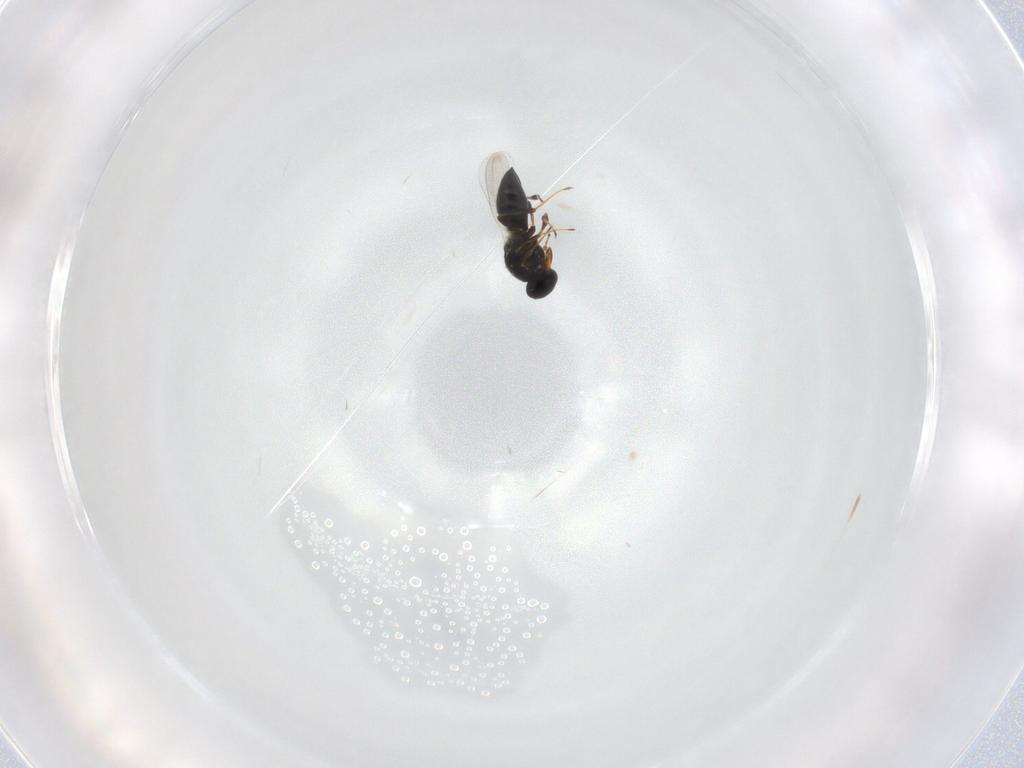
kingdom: Animalia
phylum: Arthropoda
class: Insecta
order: Hymenoptera
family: Platygastridae
